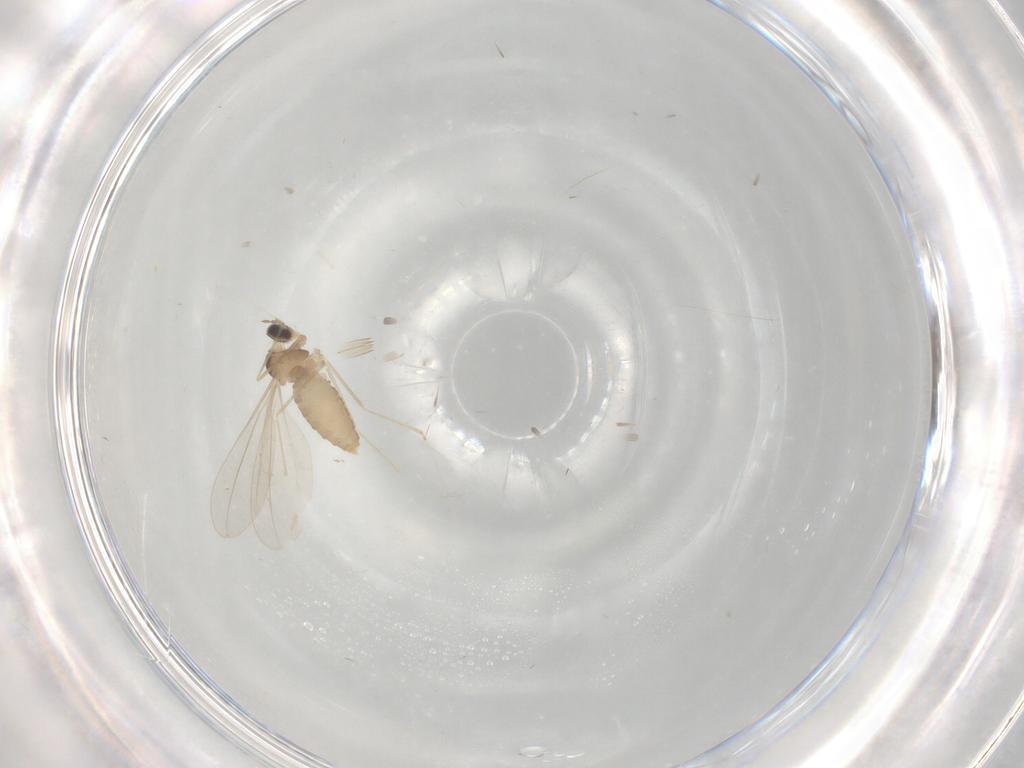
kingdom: Animalia
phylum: Arthropoda
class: Insecta
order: Diptera
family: Cecidomyiidae
